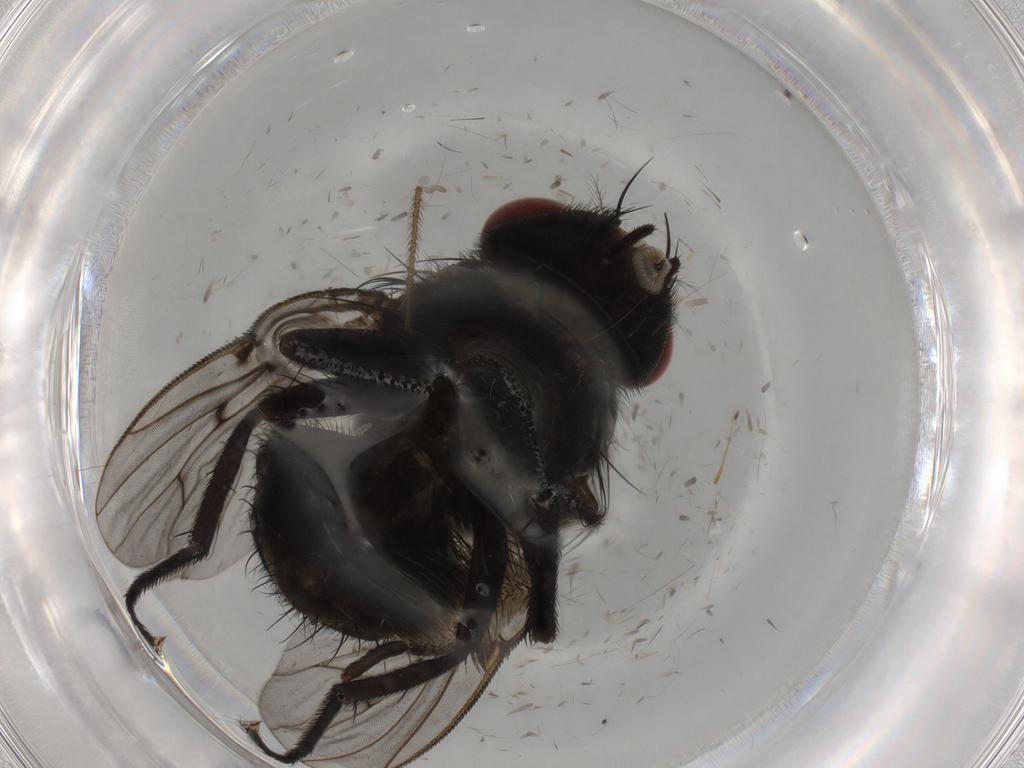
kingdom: Animalia
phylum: Arthropoda
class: Insecta
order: Diptera
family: Muscidae
